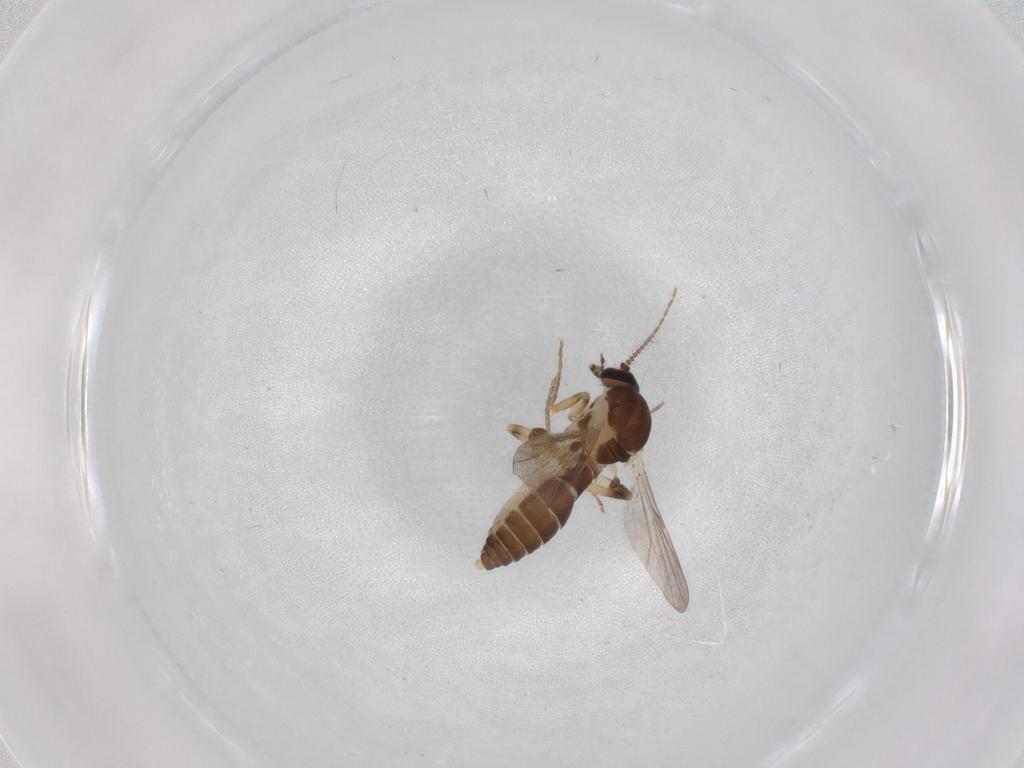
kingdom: Animalia
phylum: Arthropoda
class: Insecta
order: Diptera
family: Ceratopogonidae
